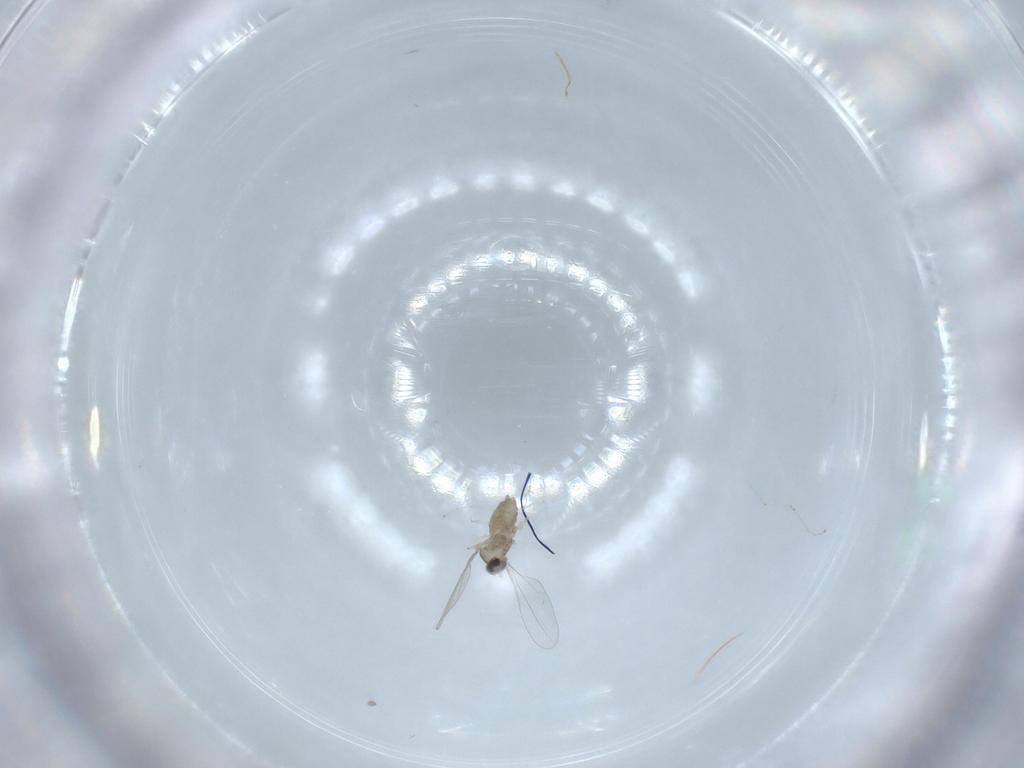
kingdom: Animalia
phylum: Arthropoda
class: Insecta
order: Diptera
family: Cecidomyiidae
